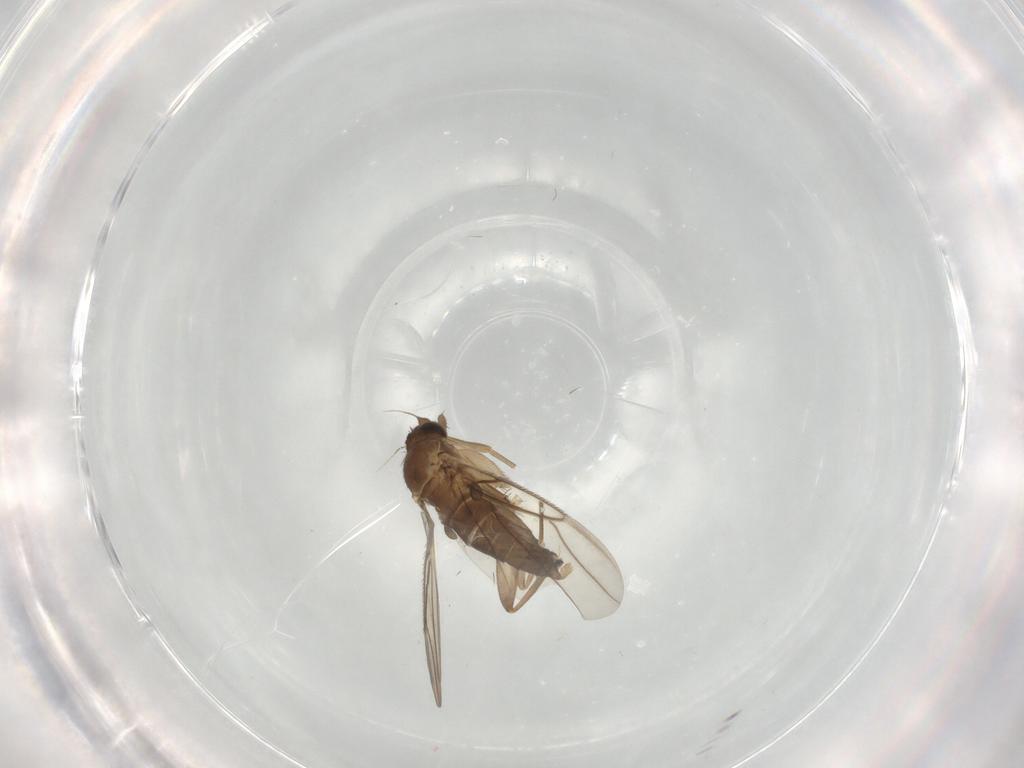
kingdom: Animalia
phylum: Arthropoda
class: Insecta
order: Diptera
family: Phoridae
